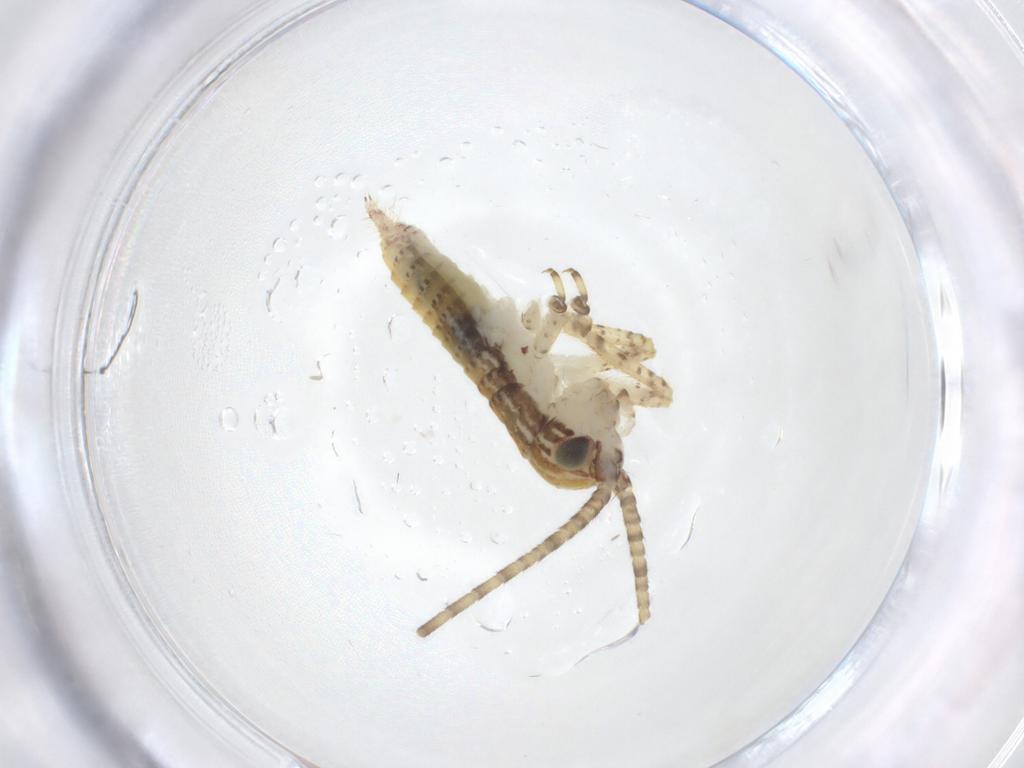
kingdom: Animalia
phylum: Arthropoda
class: Insecta
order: Orthoptera
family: Gryllidae
